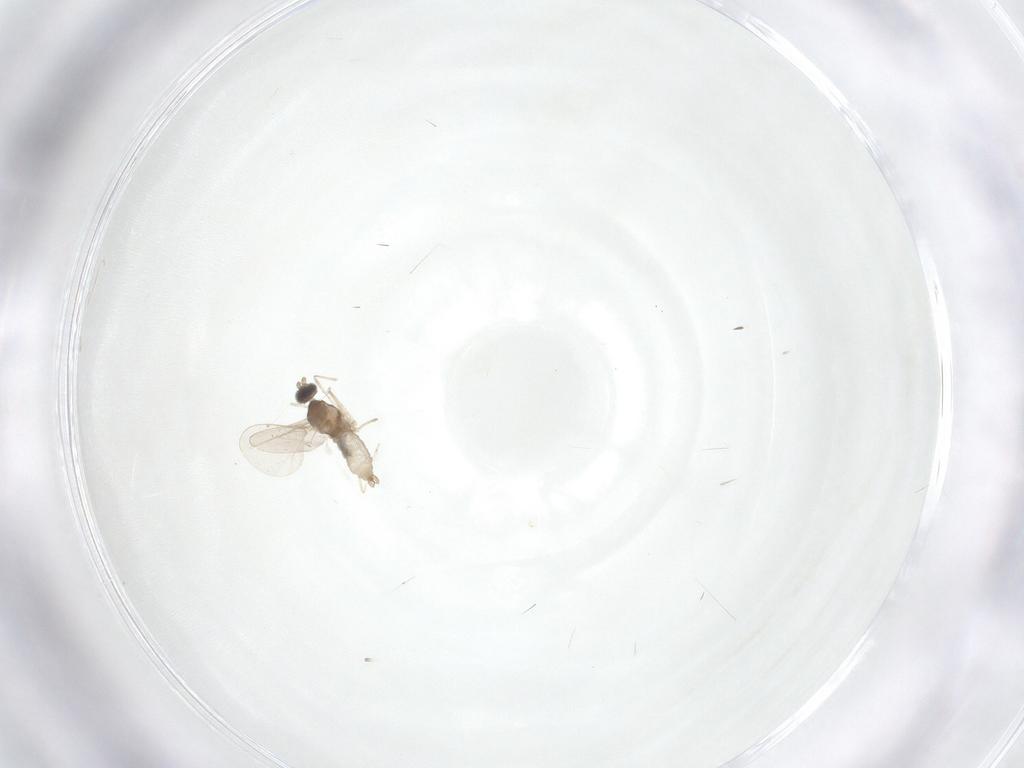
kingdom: Animalia
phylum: Arthropoda
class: Insecta
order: Diptera
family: Cecidomyiidae
